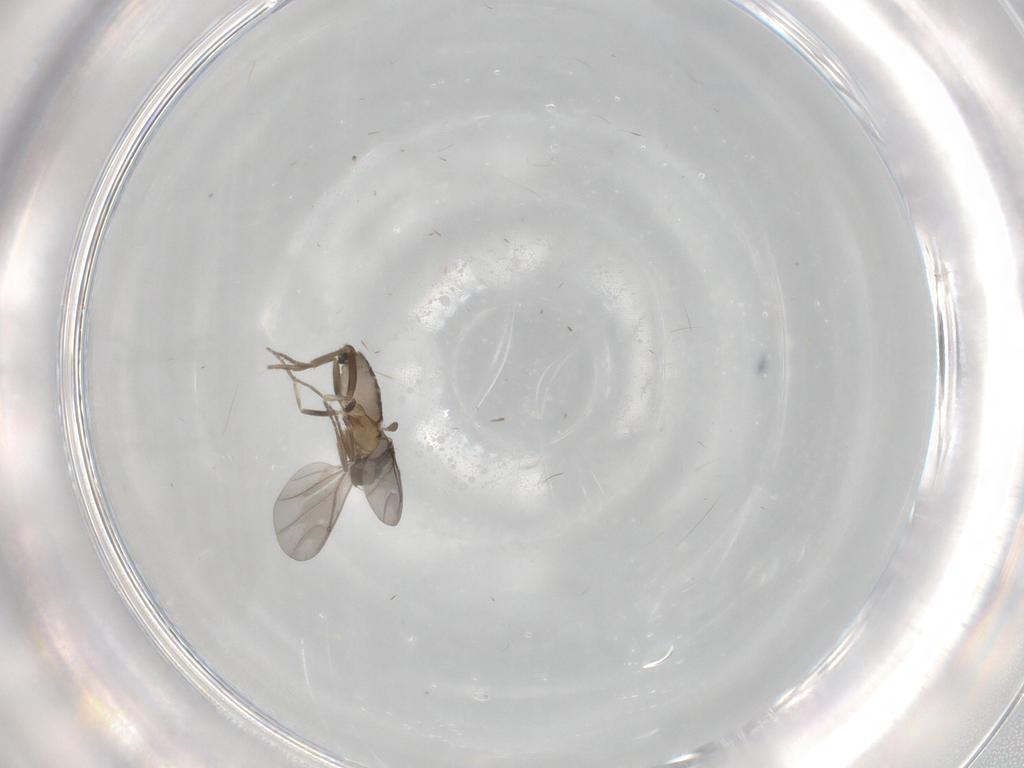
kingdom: Animalia
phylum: Arthropoda
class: Insecta
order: Diptera
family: Phoridae
